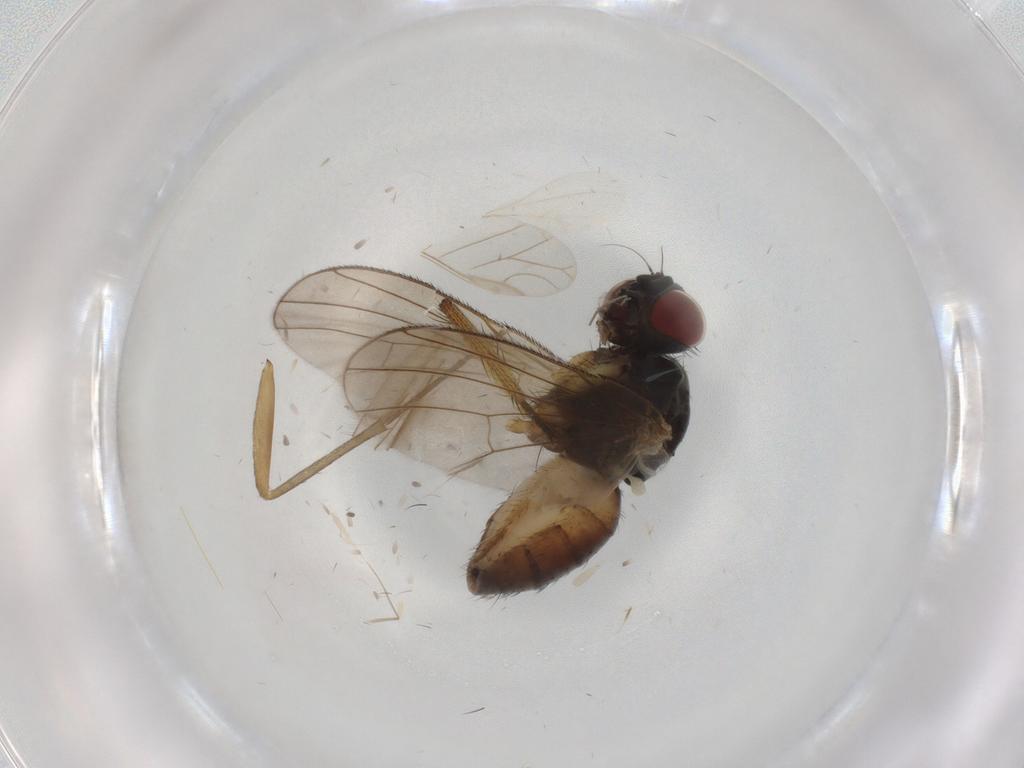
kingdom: Animalia
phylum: Arthropoda
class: Insecta
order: Diptera
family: Muscidae
